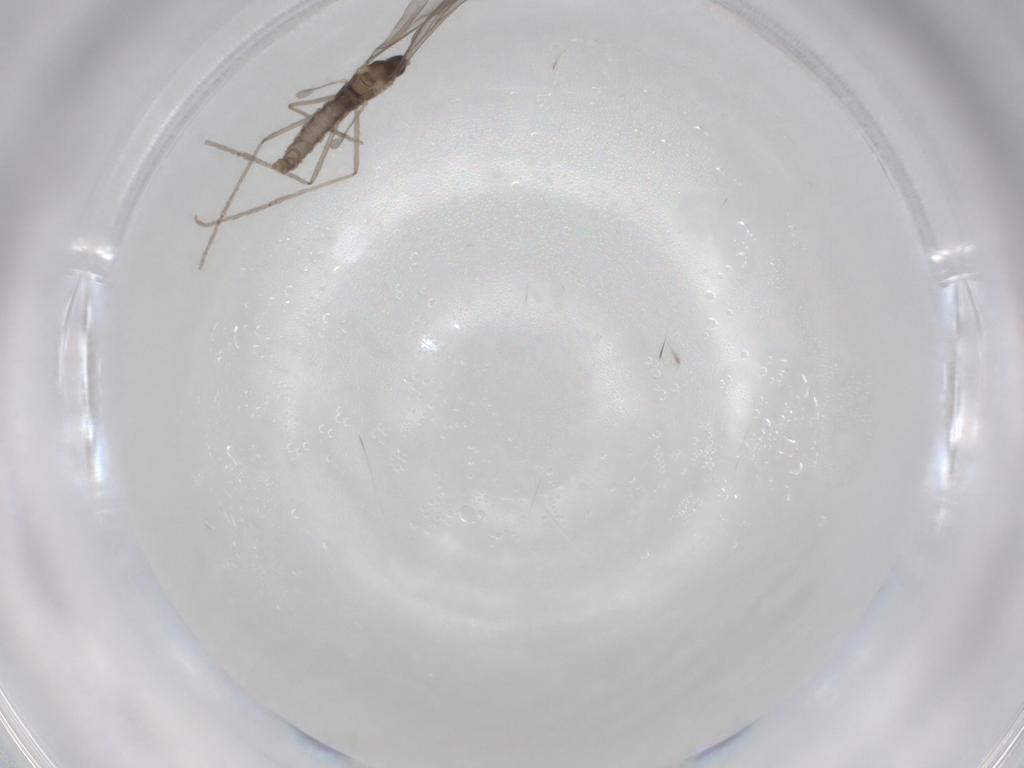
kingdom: Animalia
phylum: Arthropoda
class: Insecta
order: Diptera
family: Cecidomyiidae
